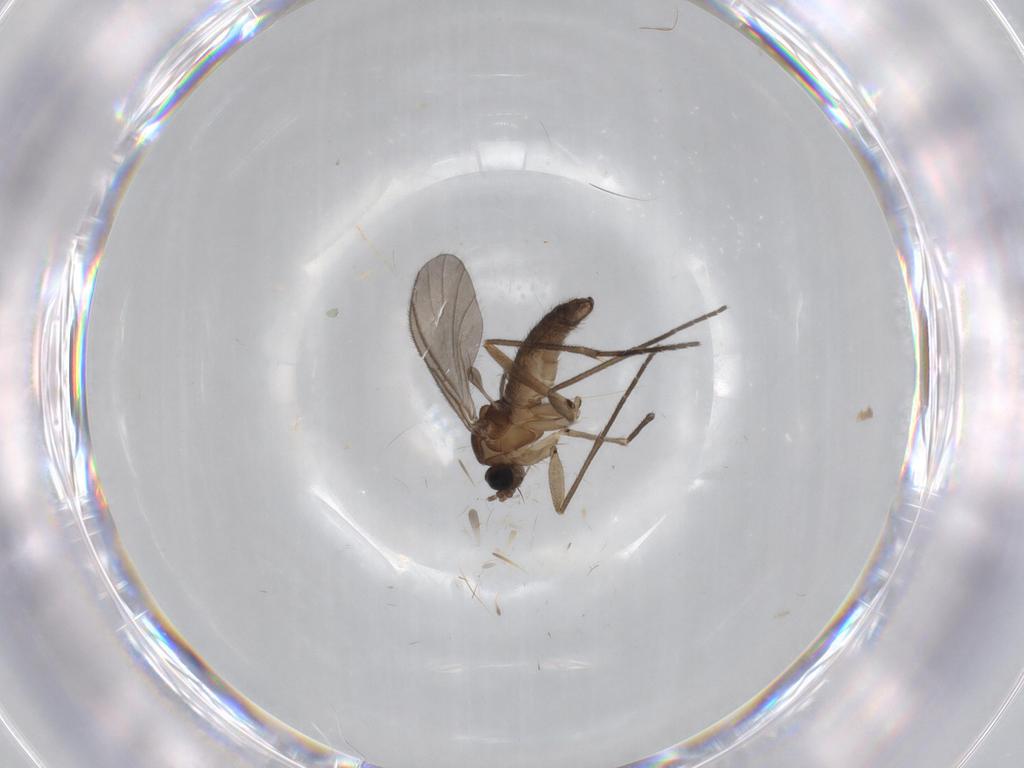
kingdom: Animalia
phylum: Arthropoda
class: Insecta
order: Diptera
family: Sciaridae
